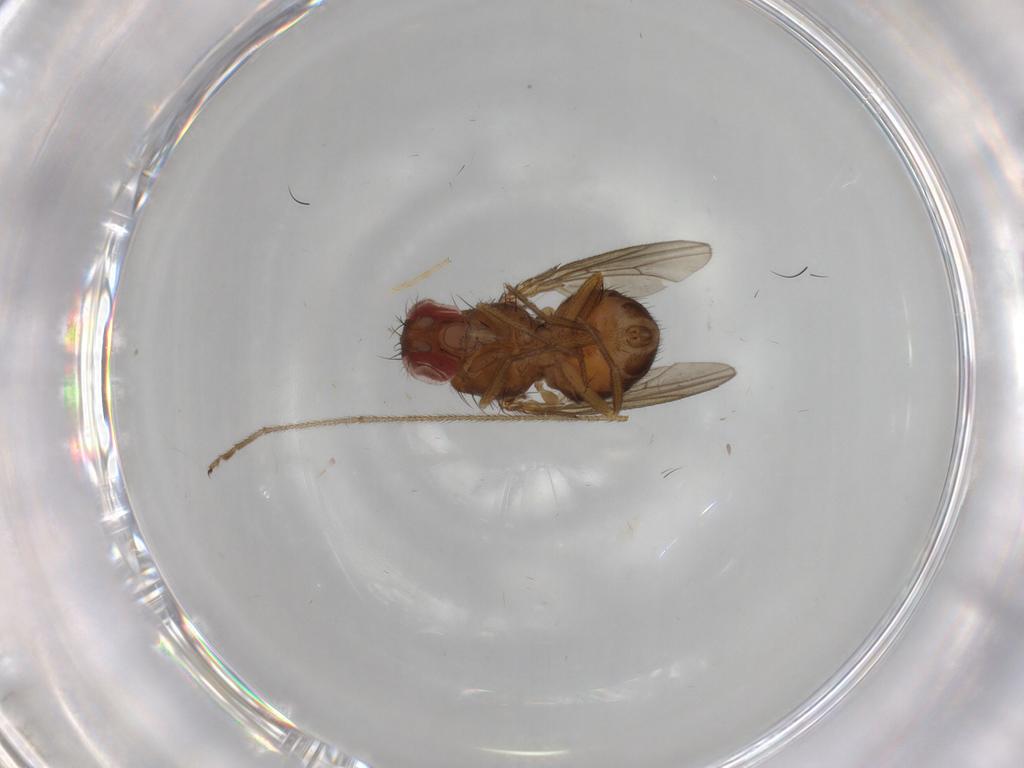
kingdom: Animalia
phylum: Arthropoda
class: Insecta
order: Diptera
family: Drosophilidae
